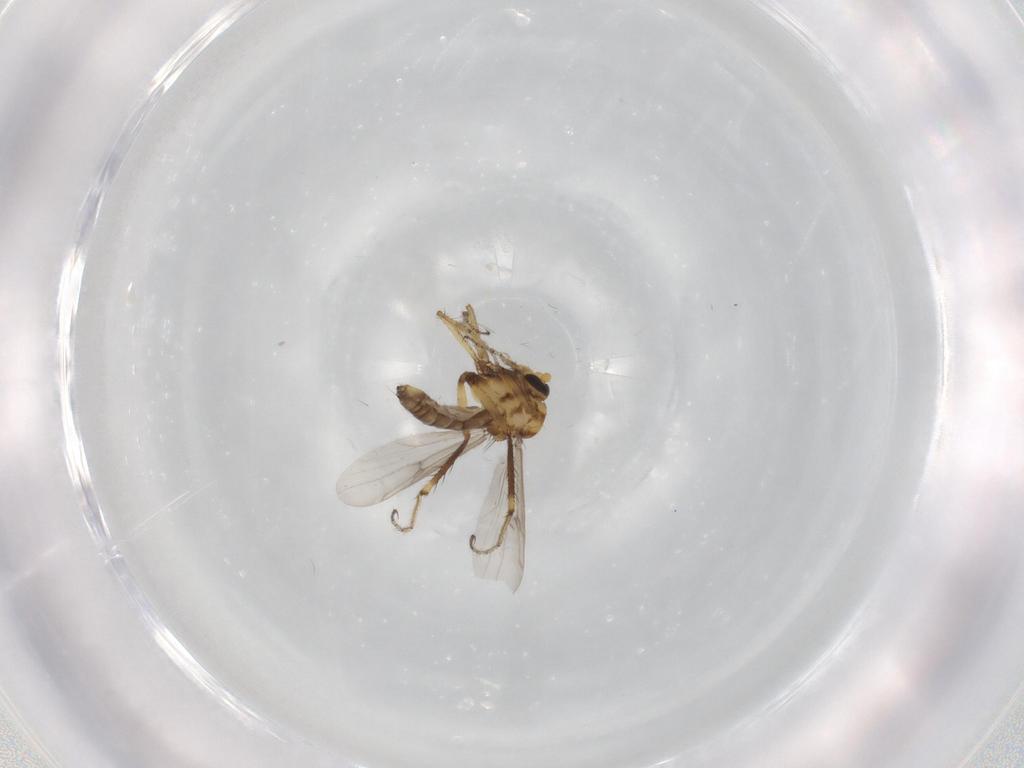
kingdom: Animalia
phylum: Arthropoda
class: Insecta
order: Diptera
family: Ceratopogonidae
